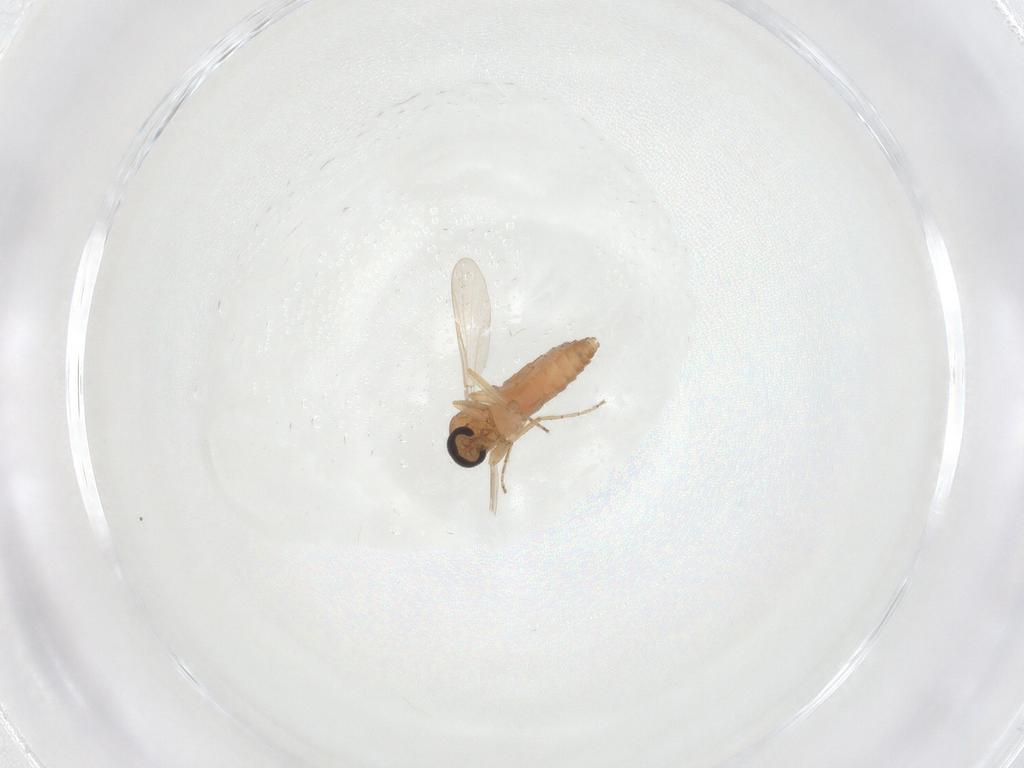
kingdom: Animalia
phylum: Arthropoda
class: Insecta
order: Diptera
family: Ceratopogonidae
